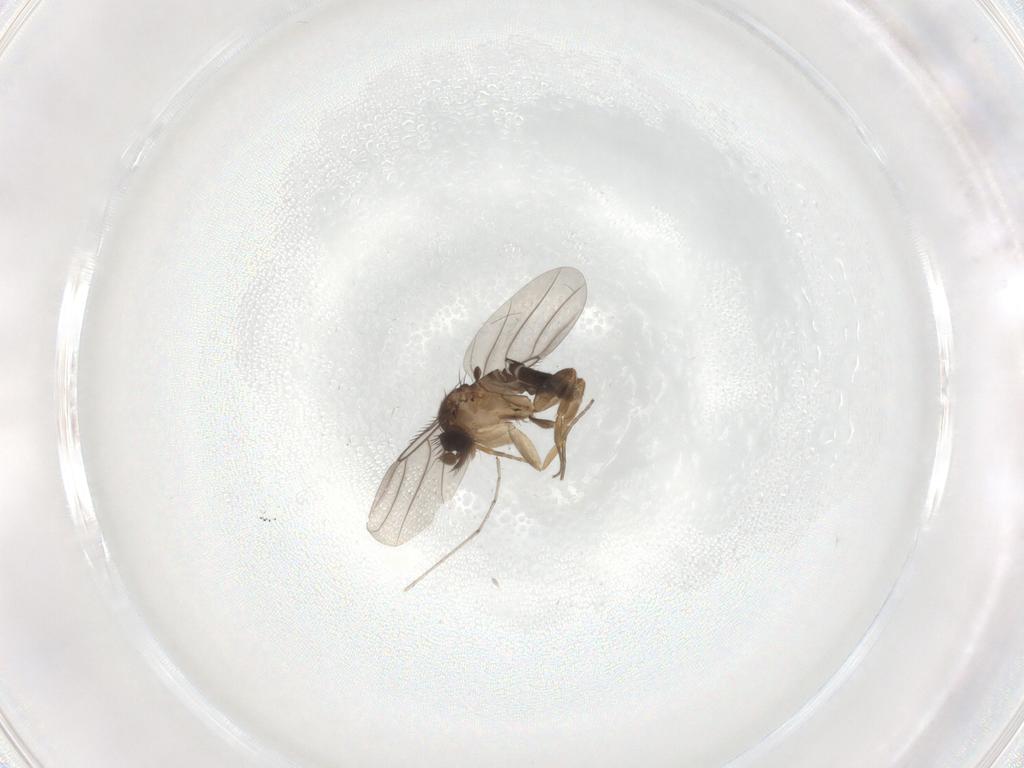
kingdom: Animalia
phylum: Arthropoda
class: Insecta
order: Diptera
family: Phoridae
